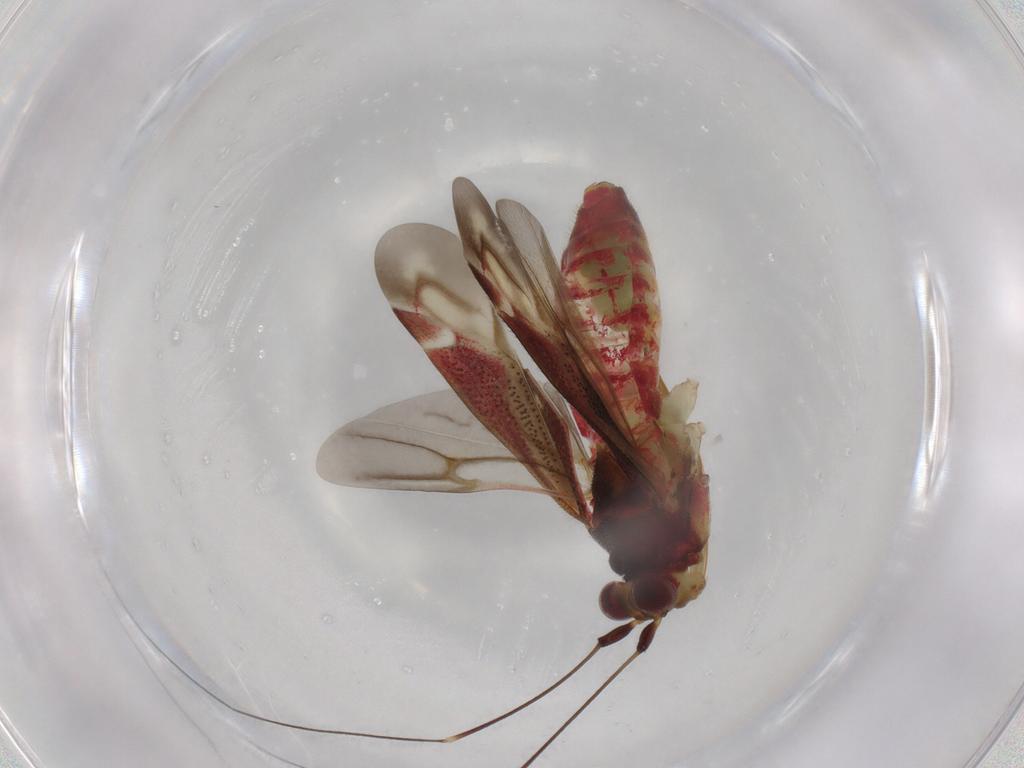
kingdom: Animalia
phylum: Arthropoda
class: Insecta
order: Hemiptera
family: Miridae
